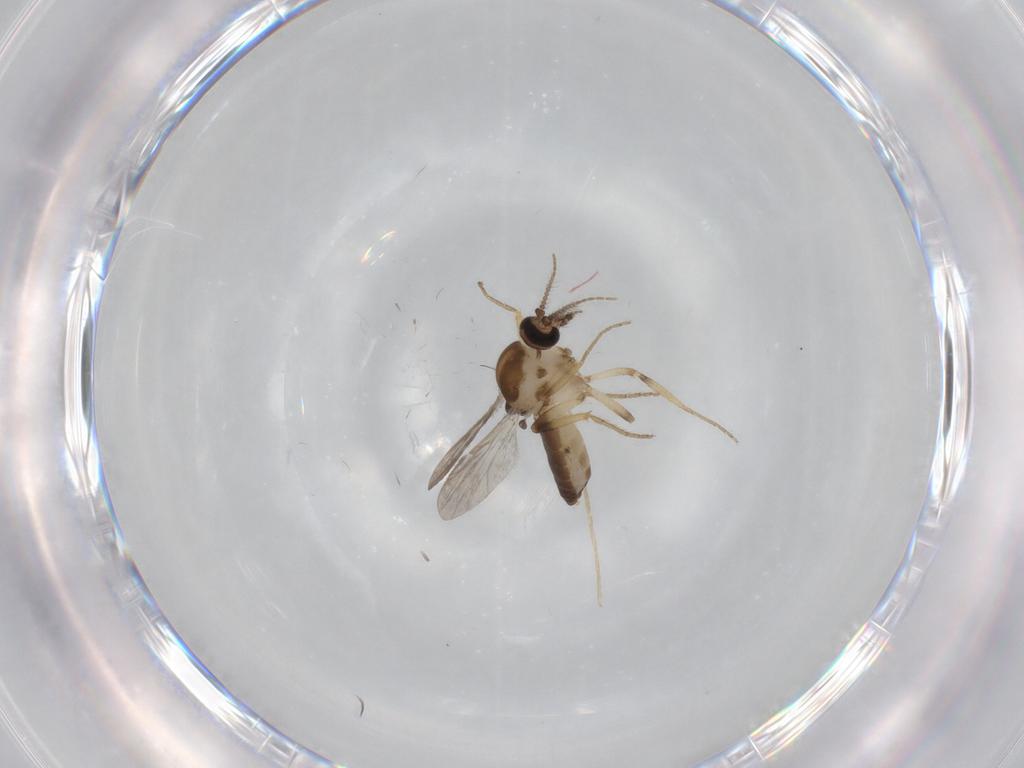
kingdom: Animalia
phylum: Arthropoda
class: Insecta
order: Diptera
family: Ceratopogonidae
